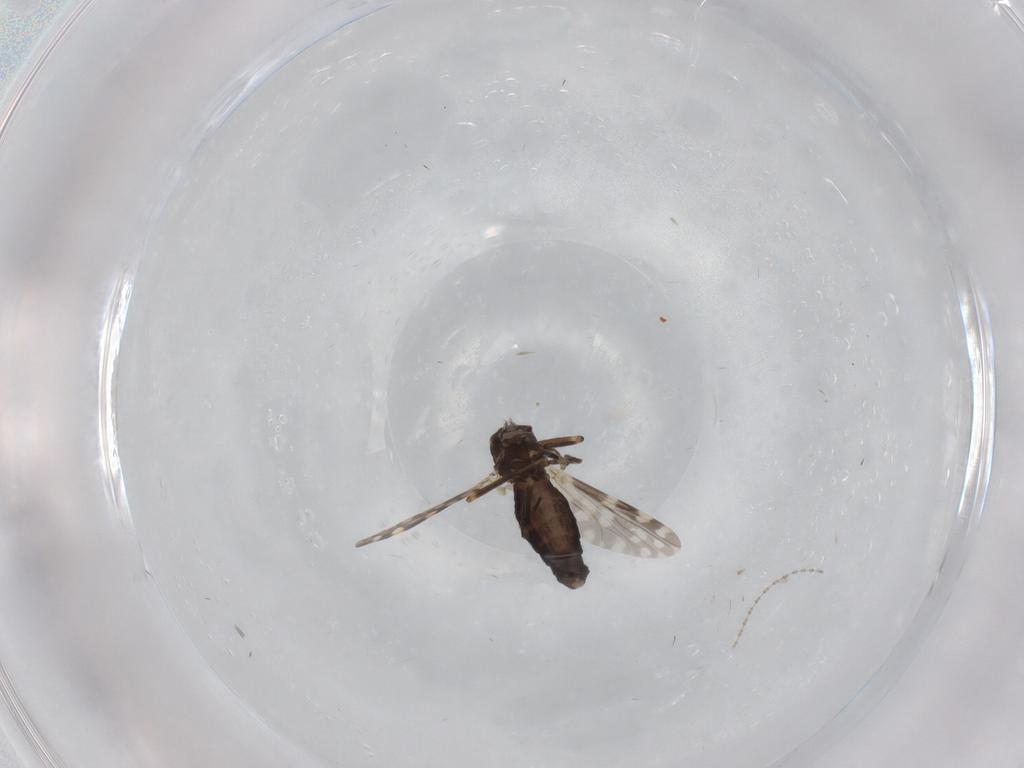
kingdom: Animalia
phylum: Arthropoda
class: Insecta
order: Diptera
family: Ceratopogonidae
